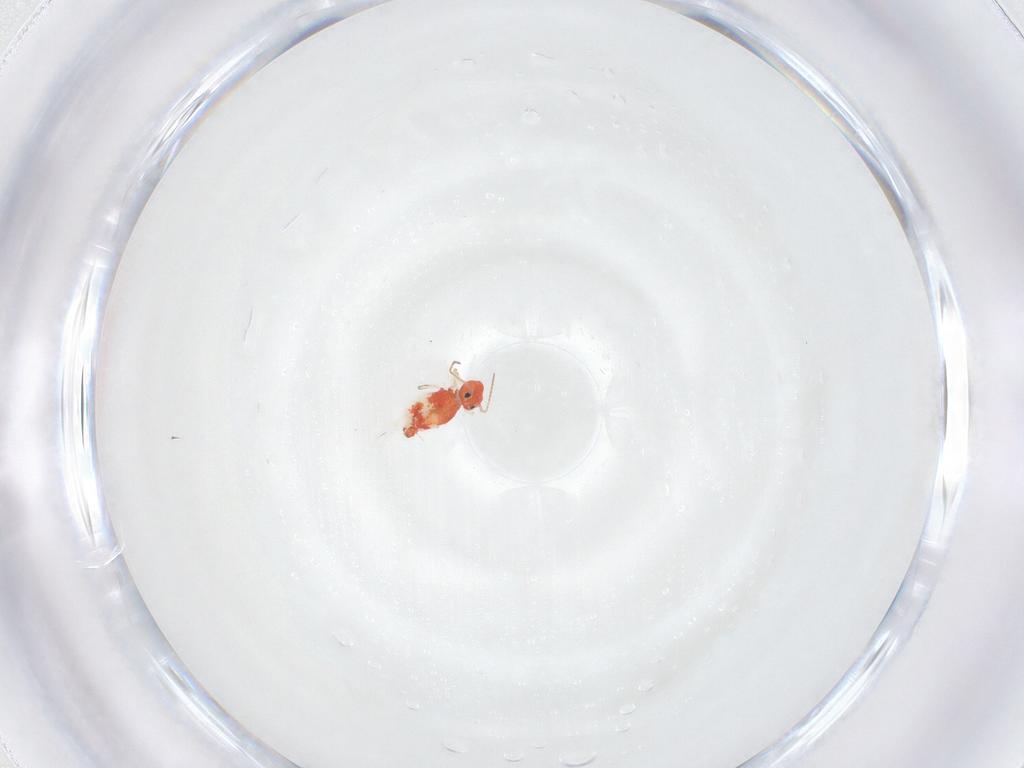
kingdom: Animalia
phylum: Arthropoda
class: Collembola
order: Symphypleona
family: Bourletiellidae
